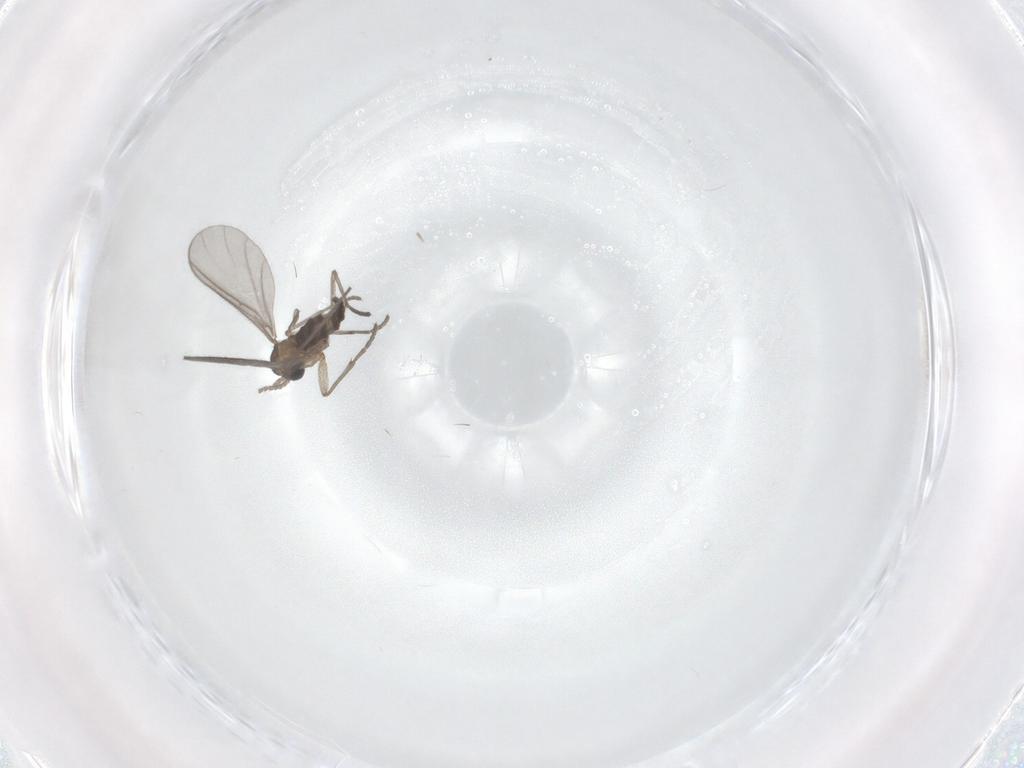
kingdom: Animalia
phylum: Arthropoda
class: Insecta
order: Diptera
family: Sciaridae
